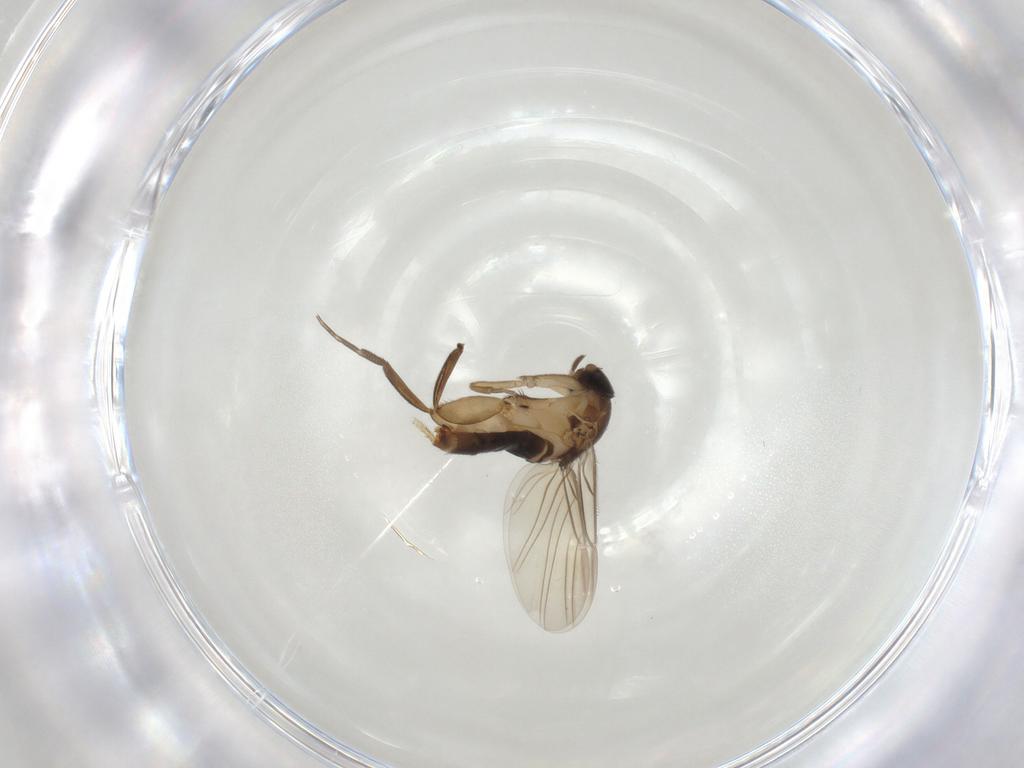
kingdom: Animalia
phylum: Arthropoda
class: Insecta
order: Diptera
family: Phoridae
